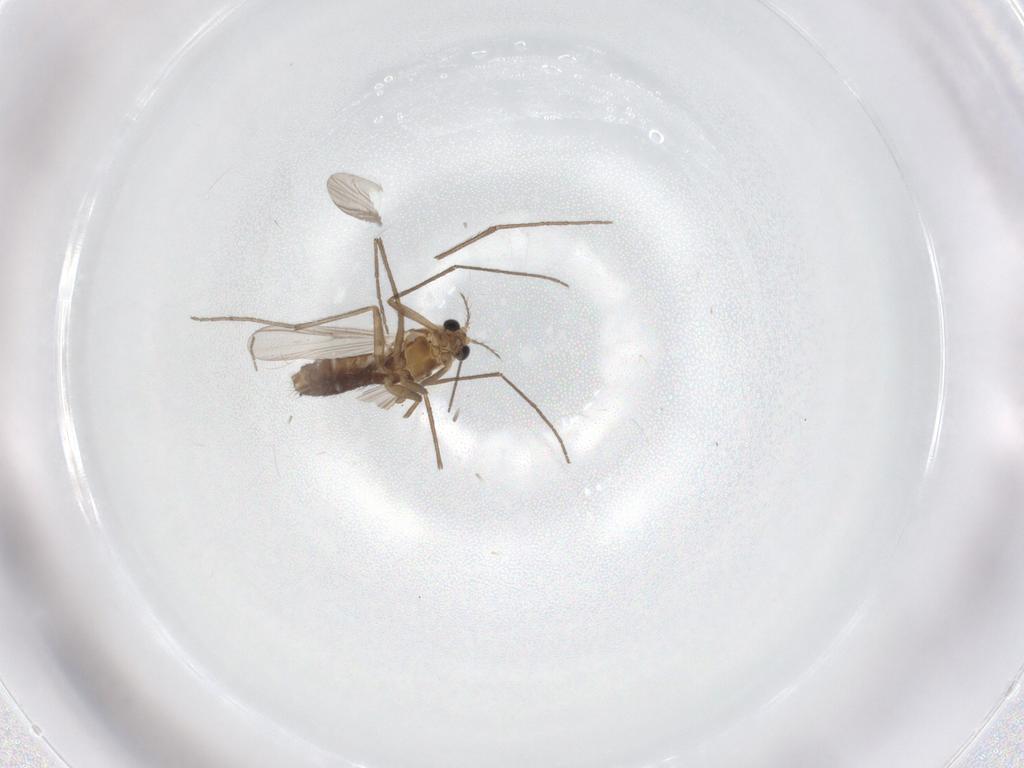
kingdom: Animalia
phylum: Arthropoda
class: Insecta
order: Diptera
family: Chironomidae
